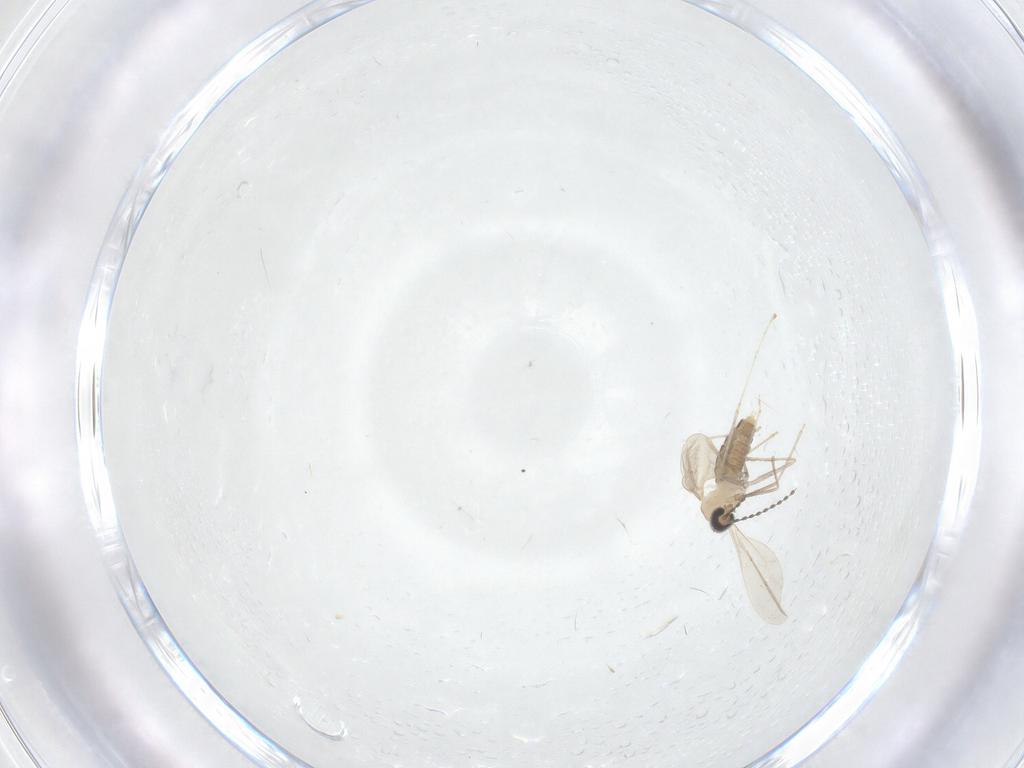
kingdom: Animalia
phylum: Arthropoda
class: Insecta
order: Diptera
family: Cecidomyiidae
